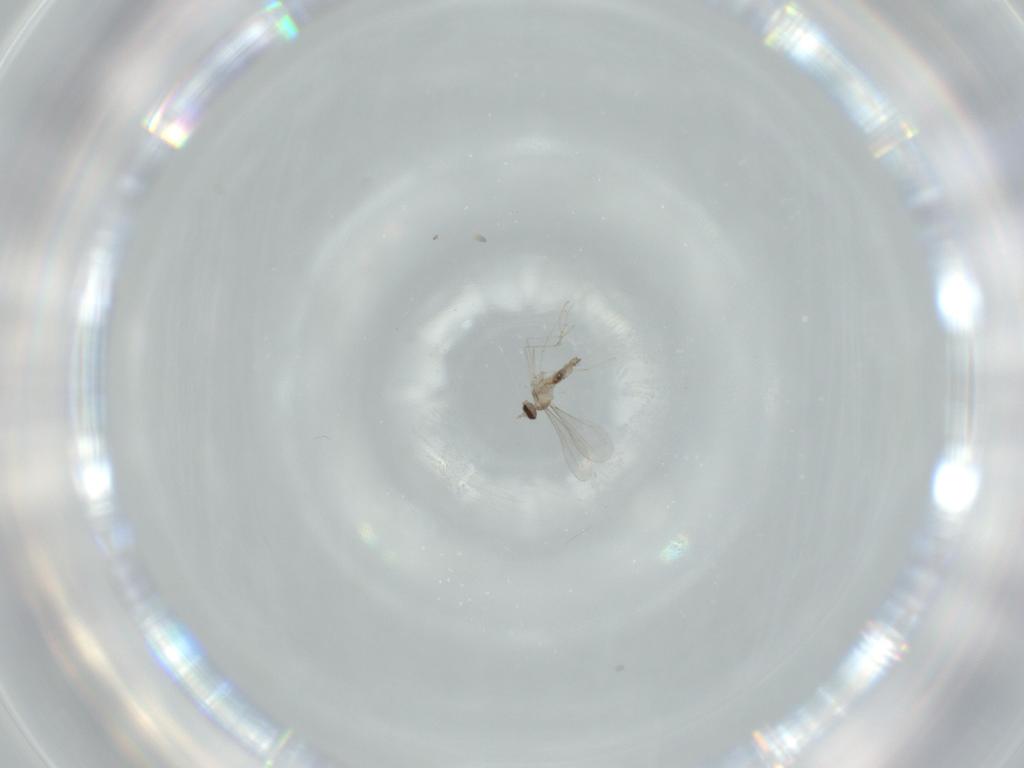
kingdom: Animalia
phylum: Arthropoda
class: Insecta
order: Diptera
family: Cecidomyiidae
